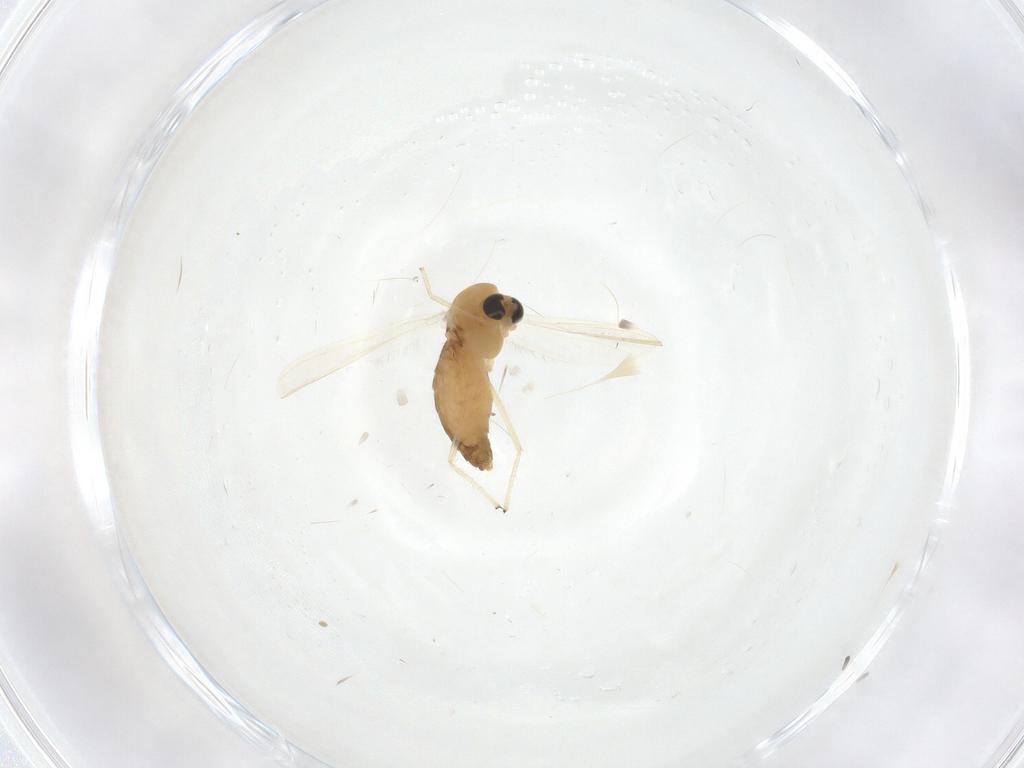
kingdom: Animalia
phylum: Arthropoda
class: Insecta
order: Diptera
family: Chironomidae
